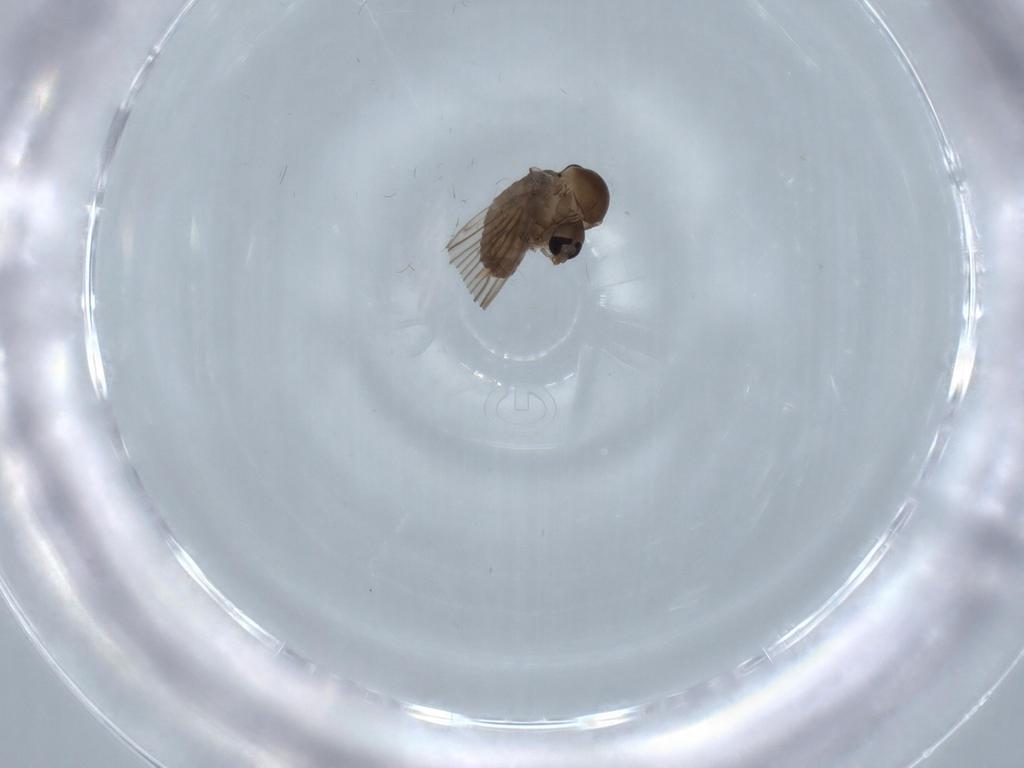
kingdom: Animalia
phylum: Arthropoda
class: Insecta
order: Diptera
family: Psychodidae
